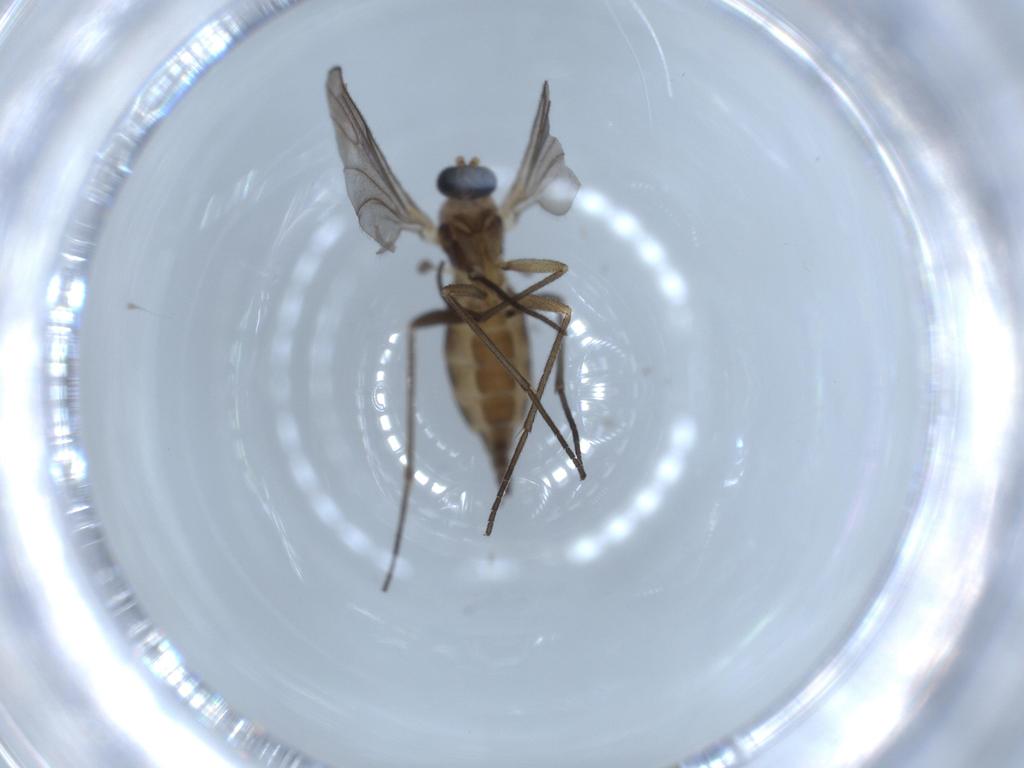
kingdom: Animalia
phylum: Arthropoda
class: Insecta
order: Diptera
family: Sciaridae
